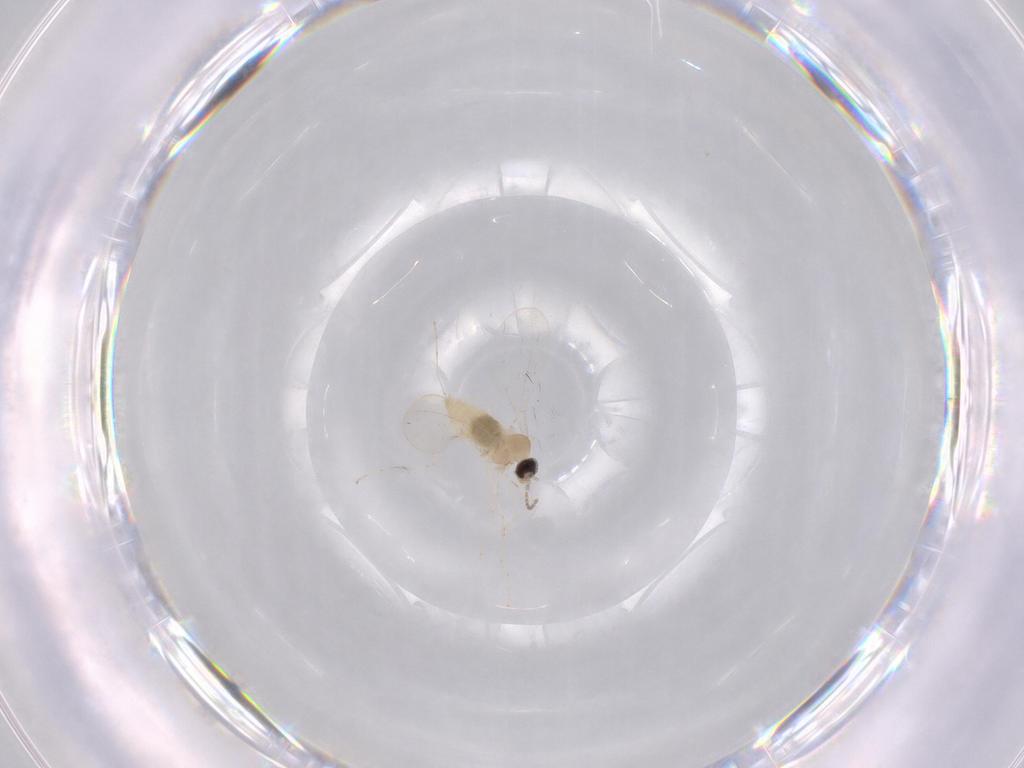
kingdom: Animalia
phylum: Arthropoda
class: Insecta
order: Diptera
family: Cecidomyiidae
